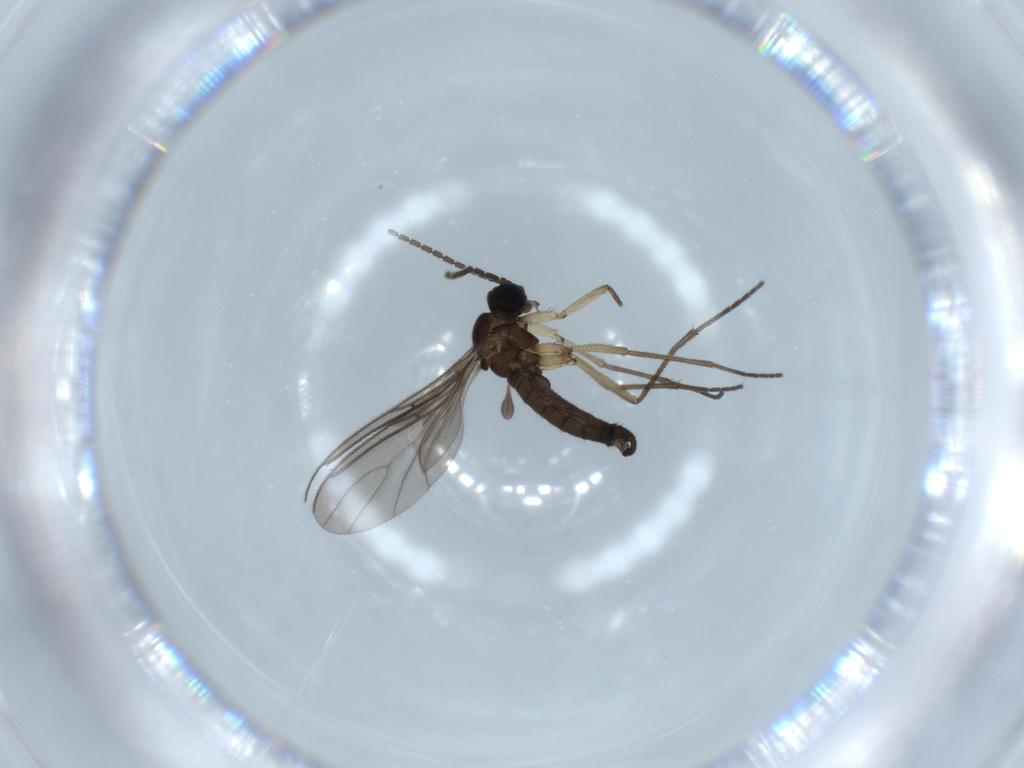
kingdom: Animalia
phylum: Arthropoda
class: Insecta
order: Diptera
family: Sciaridae
